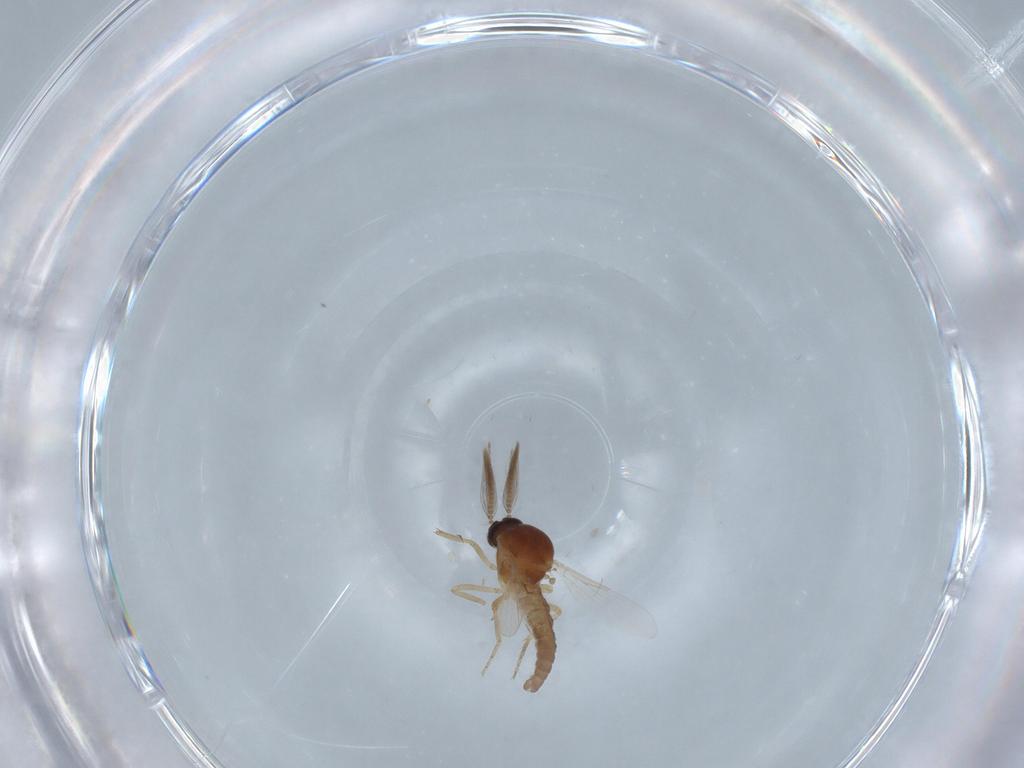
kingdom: Animalia
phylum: Arthropoda
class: Insecta
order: Diptera
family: Ceratopogonidae
